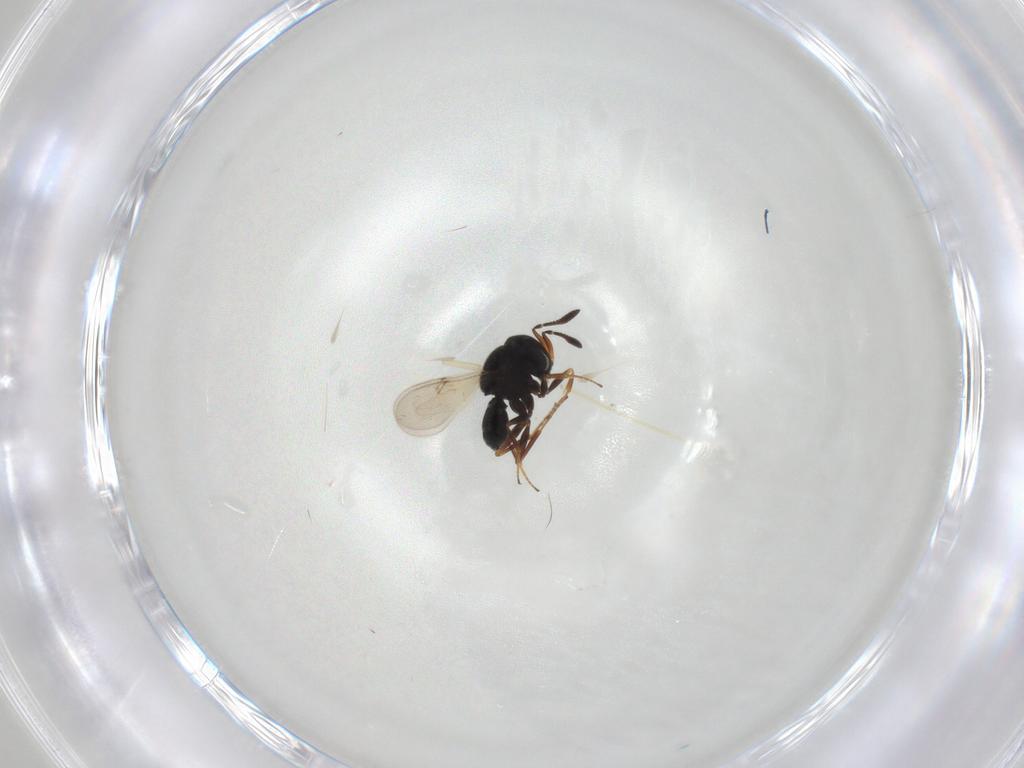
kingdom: Animalia
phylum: Arthropoda
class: Insecta
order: Hymenoptera
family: Scelionidae
